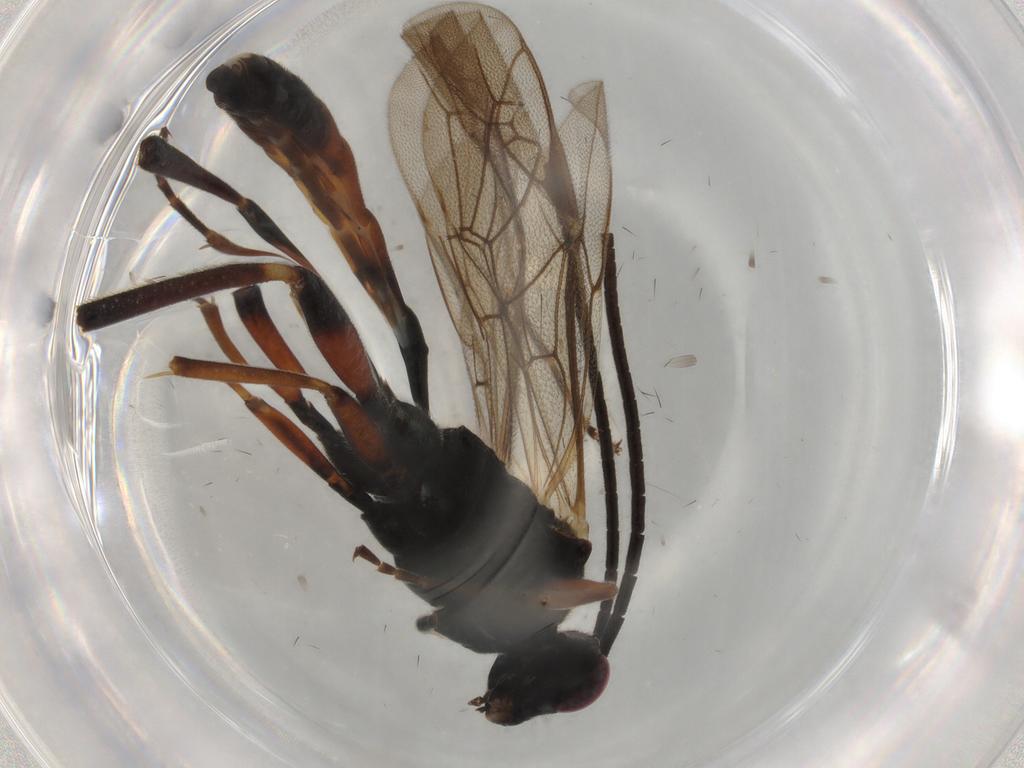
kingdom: Animalia
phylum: Arthropoda
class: Insecta
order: Hymenoptera
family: Ichneumonidae
